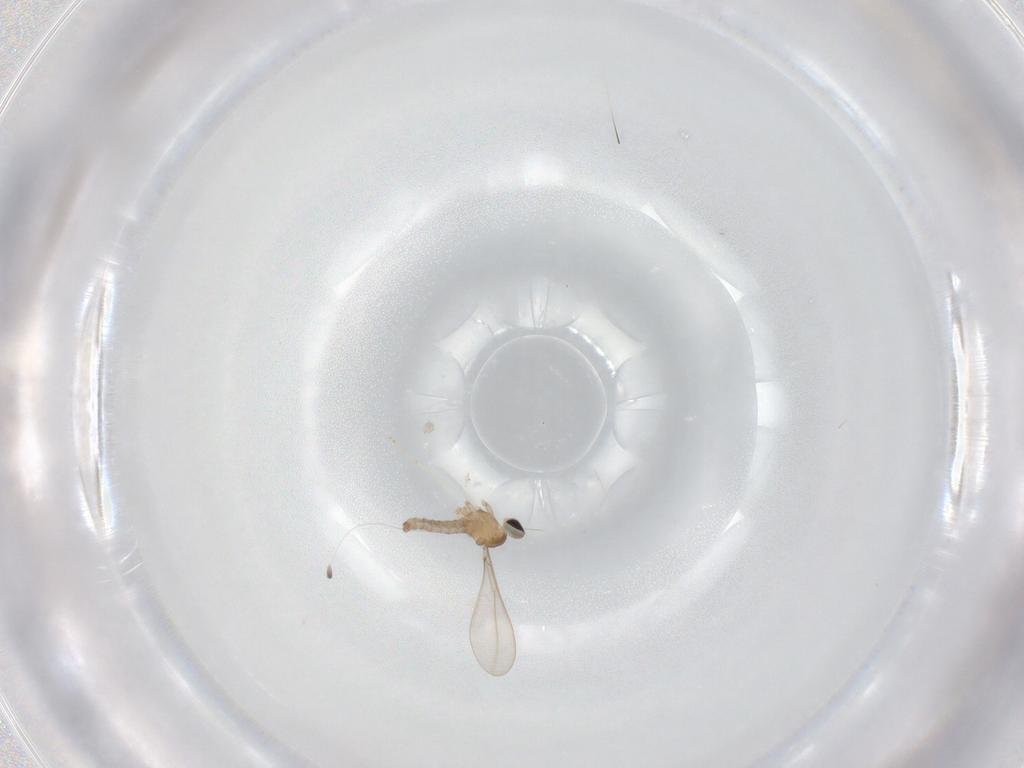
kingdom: Animalia
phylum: Arthropoda
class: Insecta
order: Diptera
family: Cecidomyiidae
